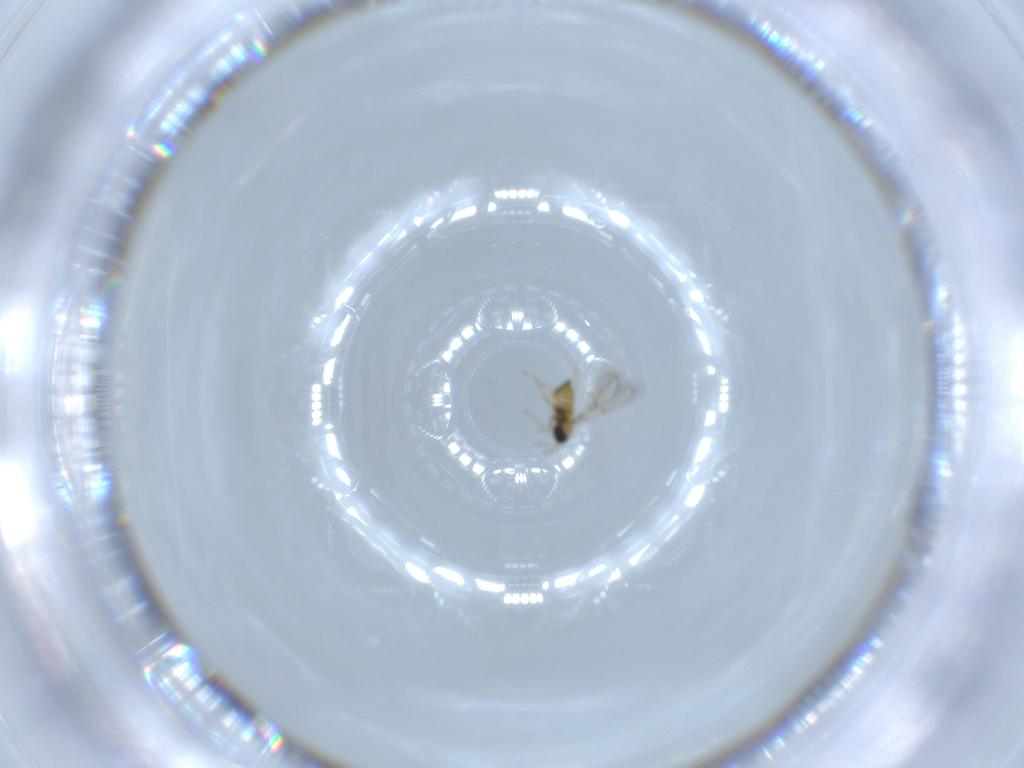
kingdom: Animalia
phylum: Arthropoda
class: Insecta
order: Hymenoptera
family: Trichogrammatidae
